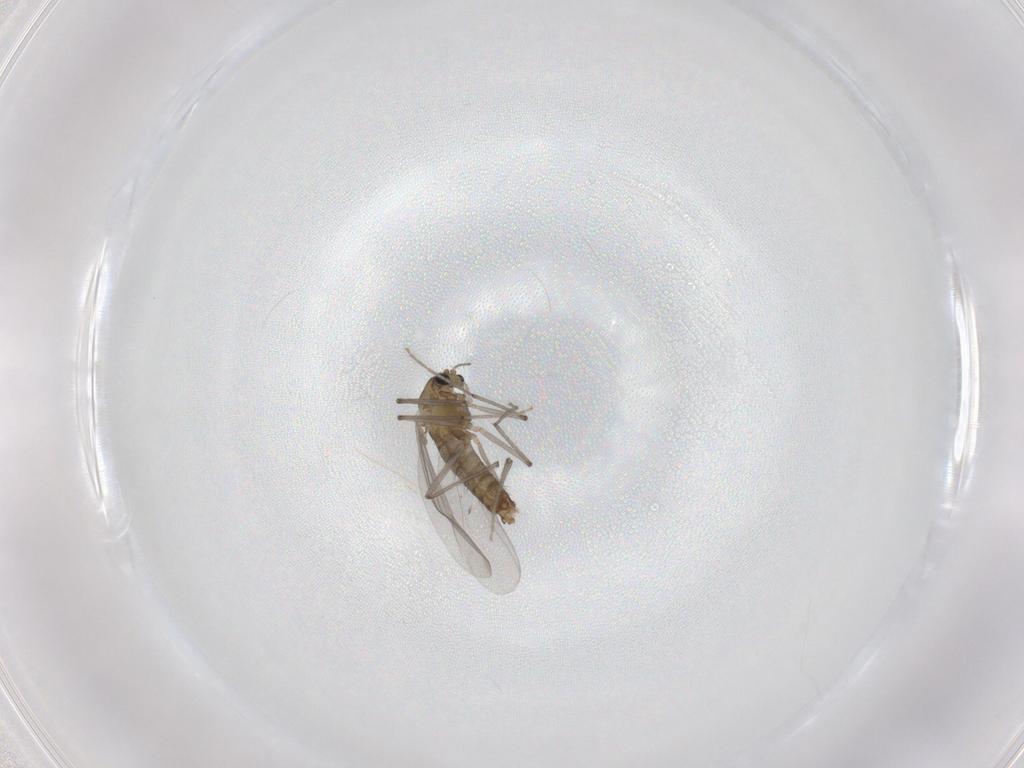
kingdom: Animalia
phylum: Arthropoda
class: Insecta
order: Diptera
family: Chironomidae
